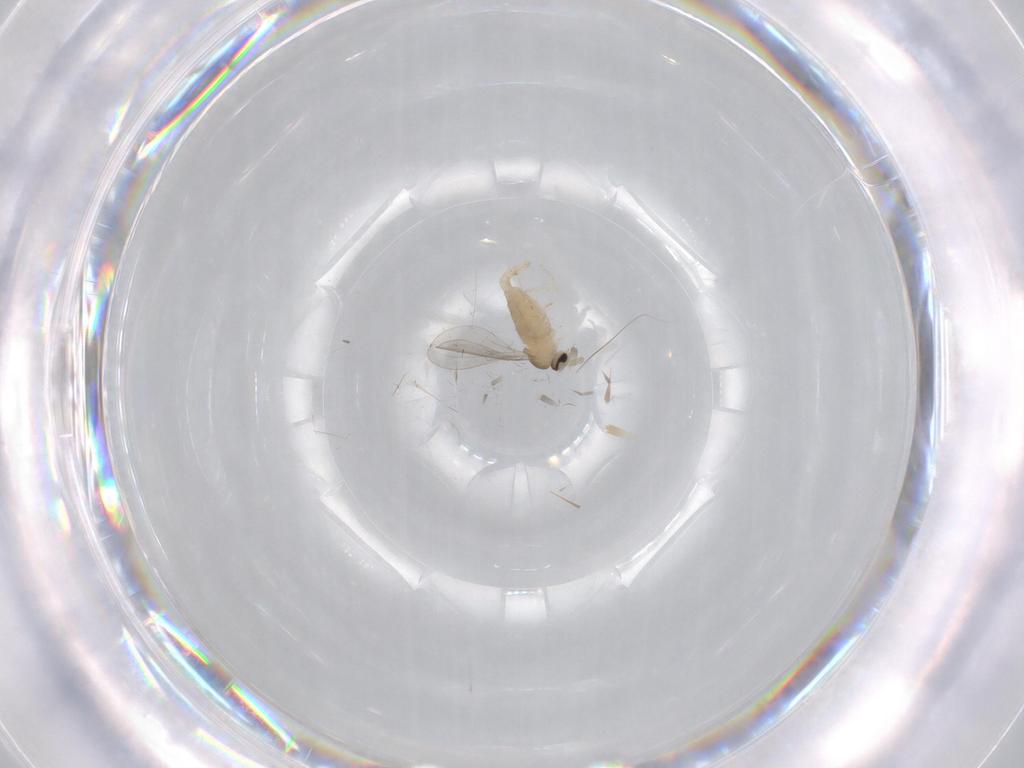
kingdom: Animalia
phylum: Arthropoda
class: Insecta
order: Diptera
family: Cecidomyiidae
